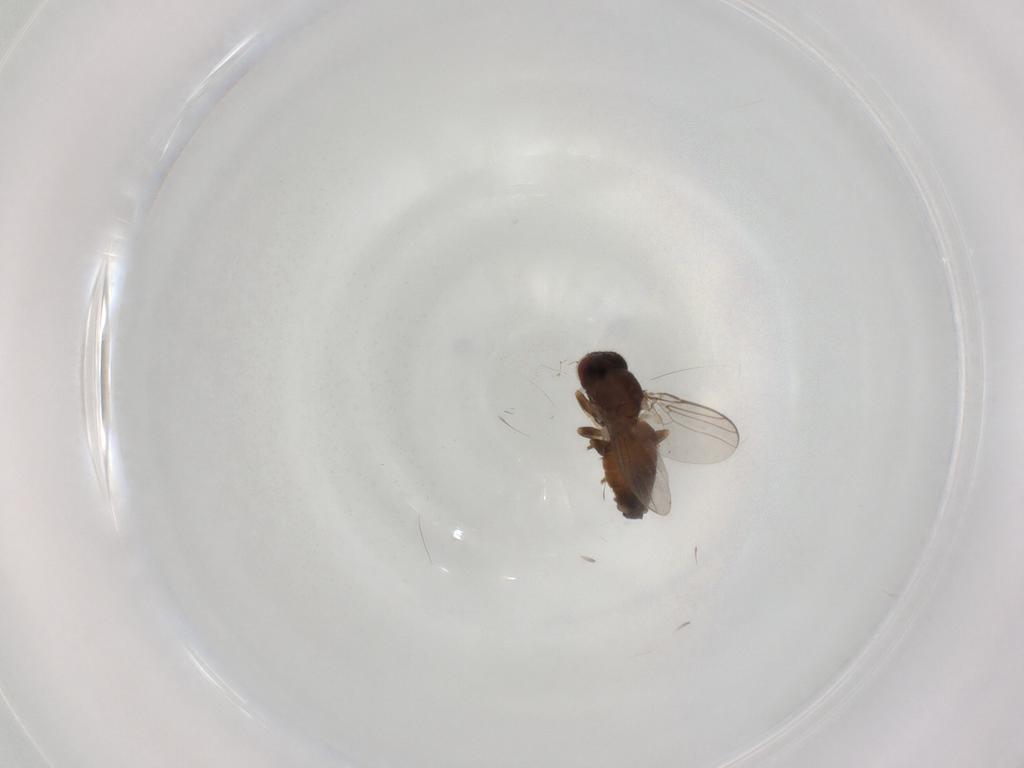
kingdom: Animalia
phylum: Arthropoda
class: Insecta
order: Diptera
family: Chloropidae
